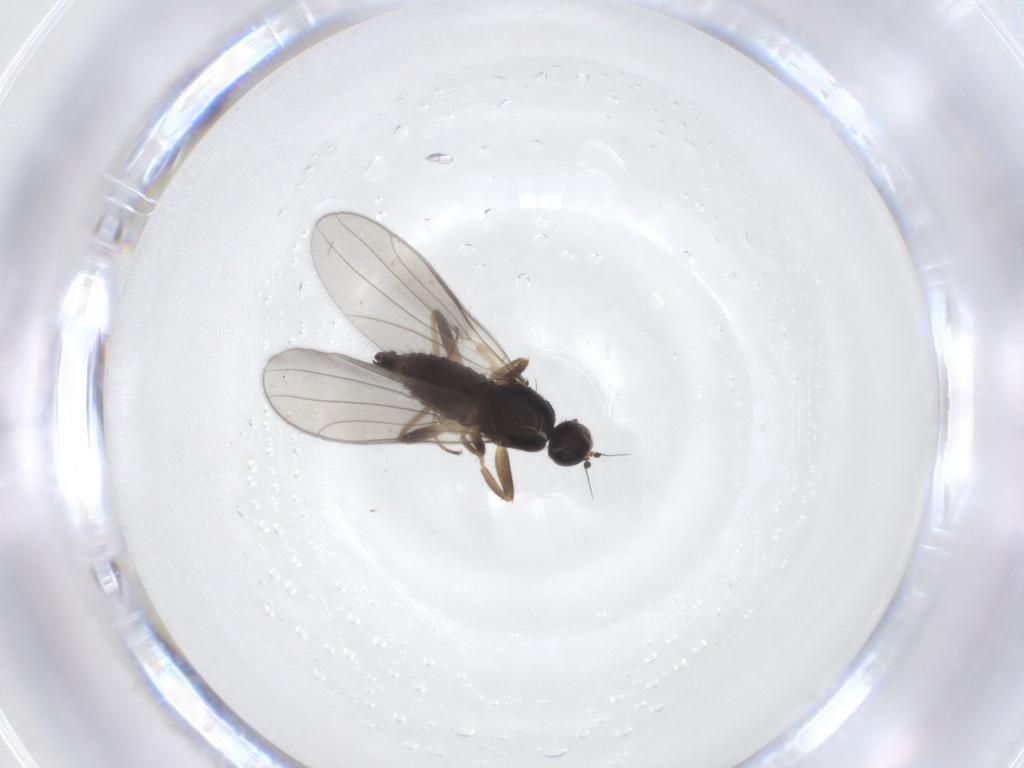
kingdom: Animalia
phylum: Arthropoda
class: Insecta
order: Diptera
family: Hybotidae
